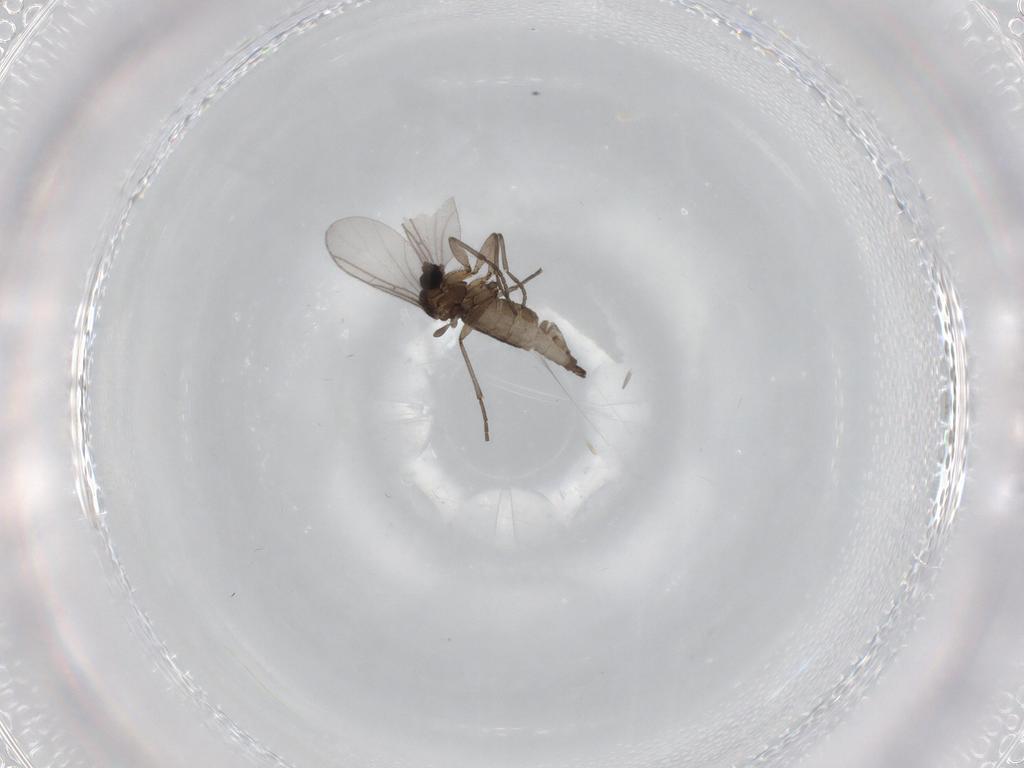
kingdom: Animalia
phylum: Arthropoda
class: Insecta
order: Diptera
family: Sciaridae
